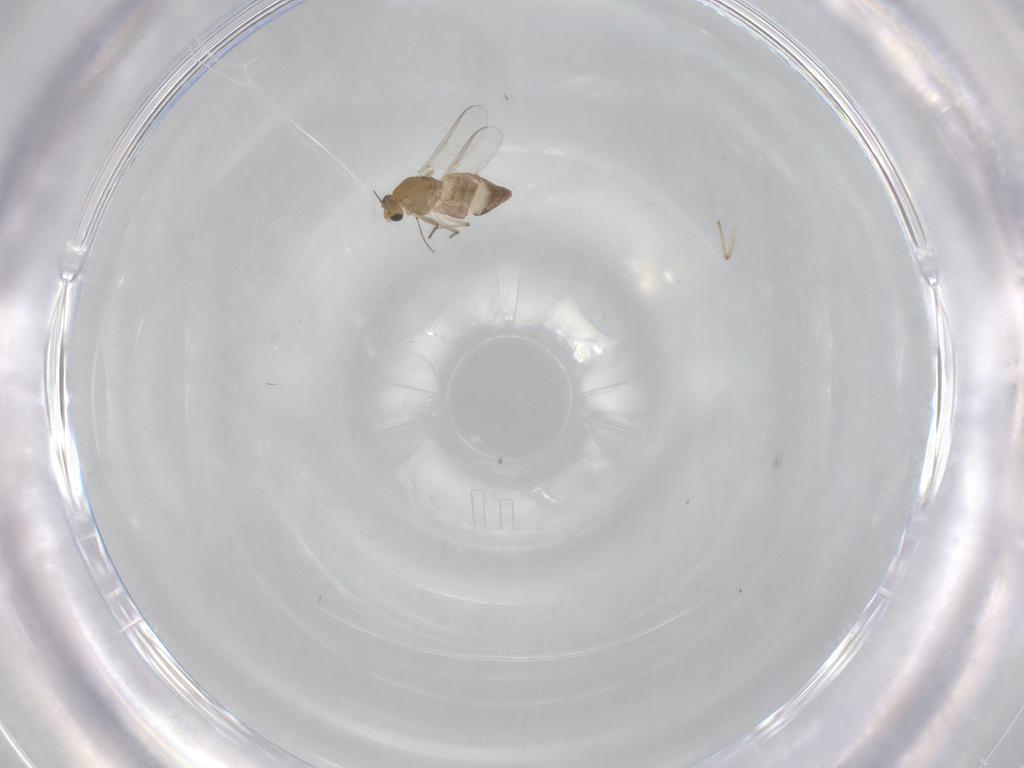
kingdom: Animalia
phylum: Arthropoda
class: Insecta
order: Diptera
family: Chironomidae
